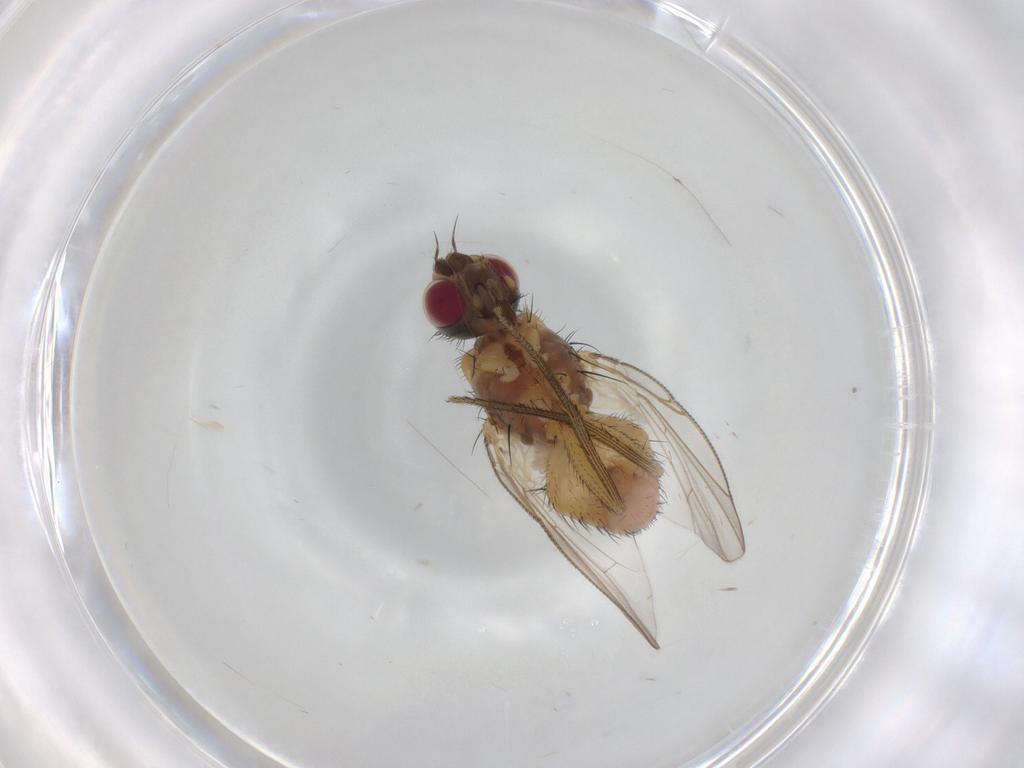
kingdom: Animalia
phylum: Arthropoda
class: Insecta
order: Diptera
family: Muscidae
